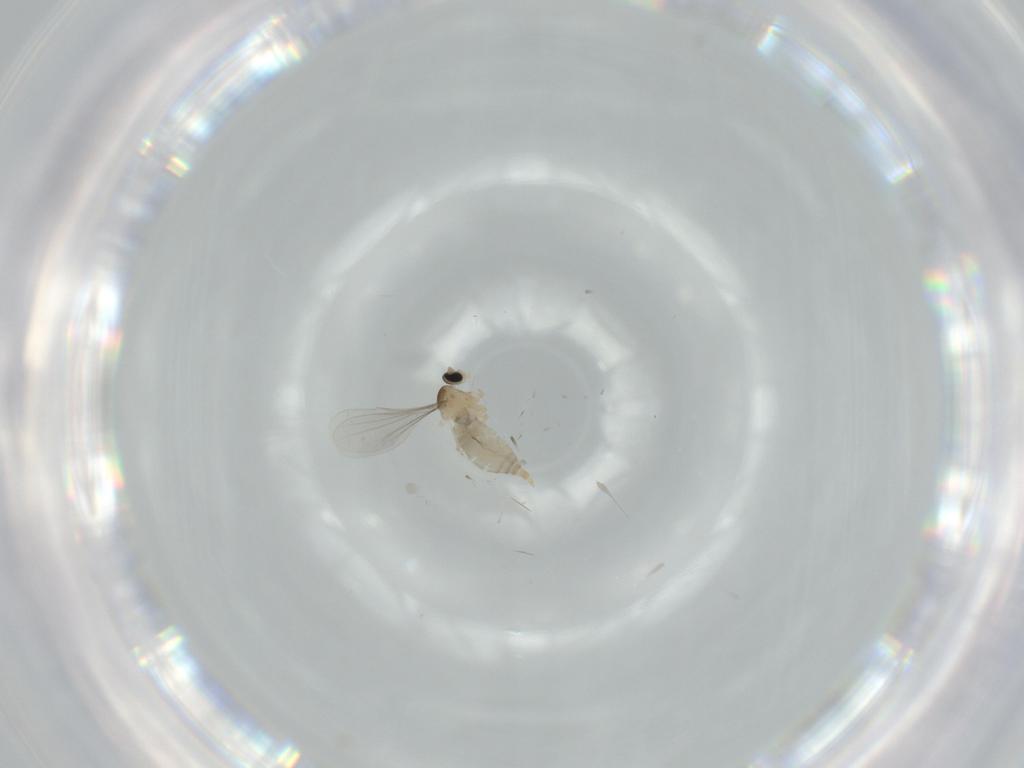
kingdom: Animalia
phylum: Arthropoda
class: Insecta
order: Diptera
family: Cecidomyiidae
